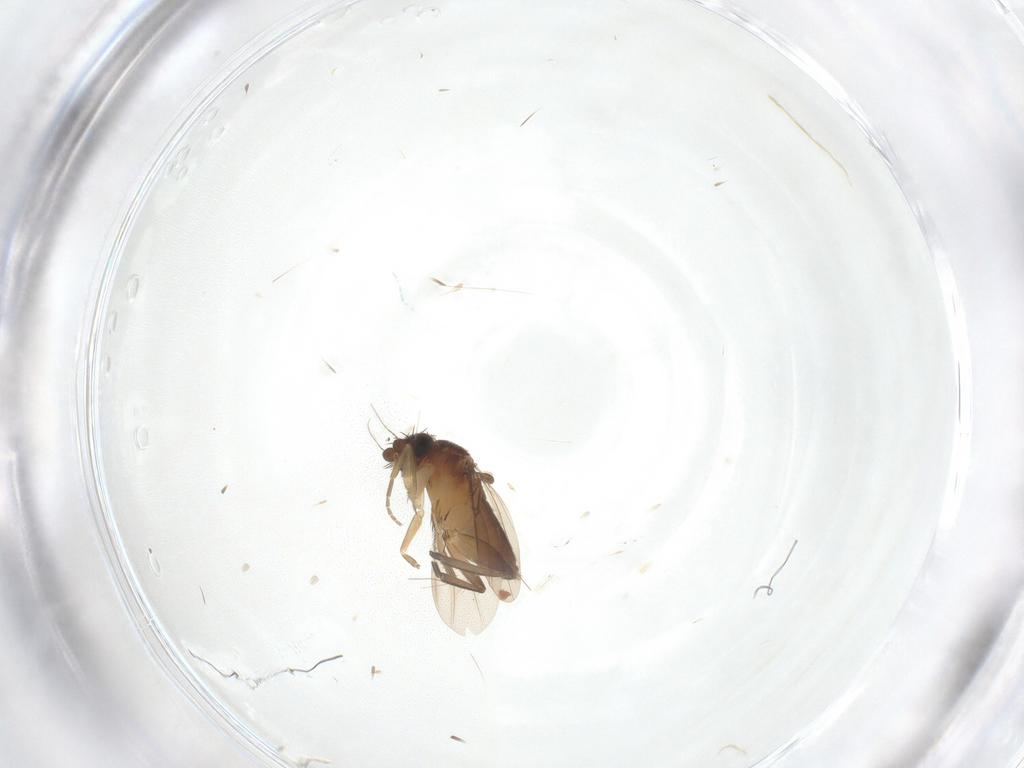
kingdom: Animalia
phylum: Arthropoda
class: Insecta
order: Diptera
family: Phoridae
